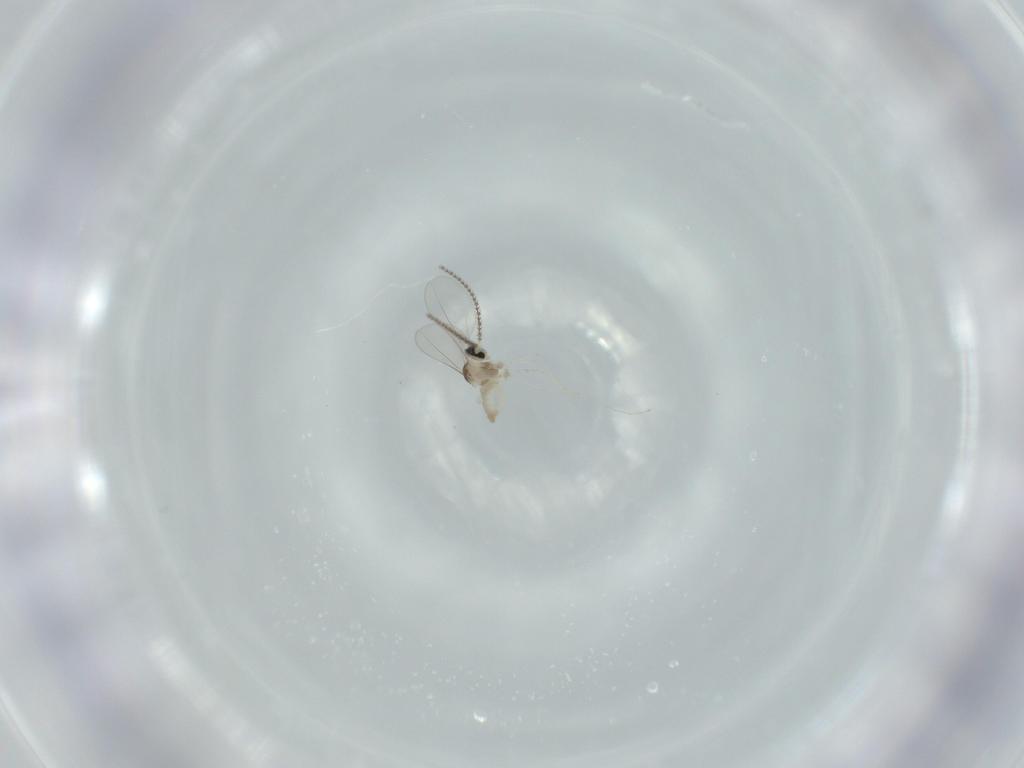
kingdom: Animalia
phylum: Arthropoda
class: Insecta
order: Diptera
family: Cecidomyiidae
